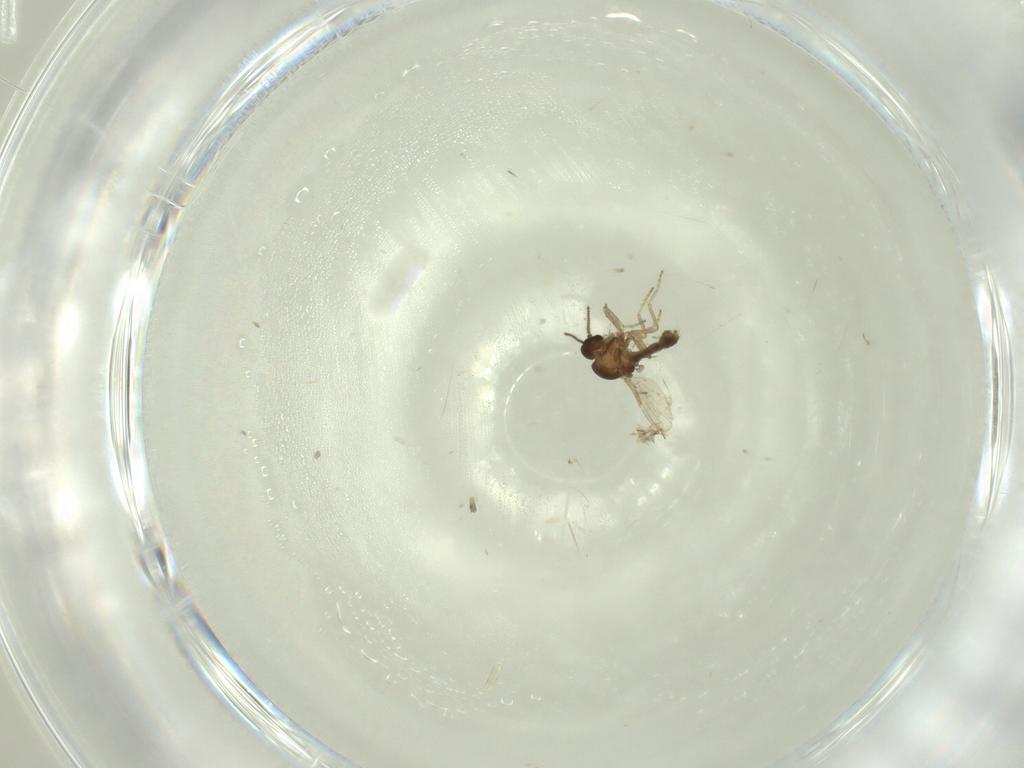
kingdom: Animalia
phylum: Arthropoda
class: Insecta
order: Diptera
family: Ceratopogonidae
